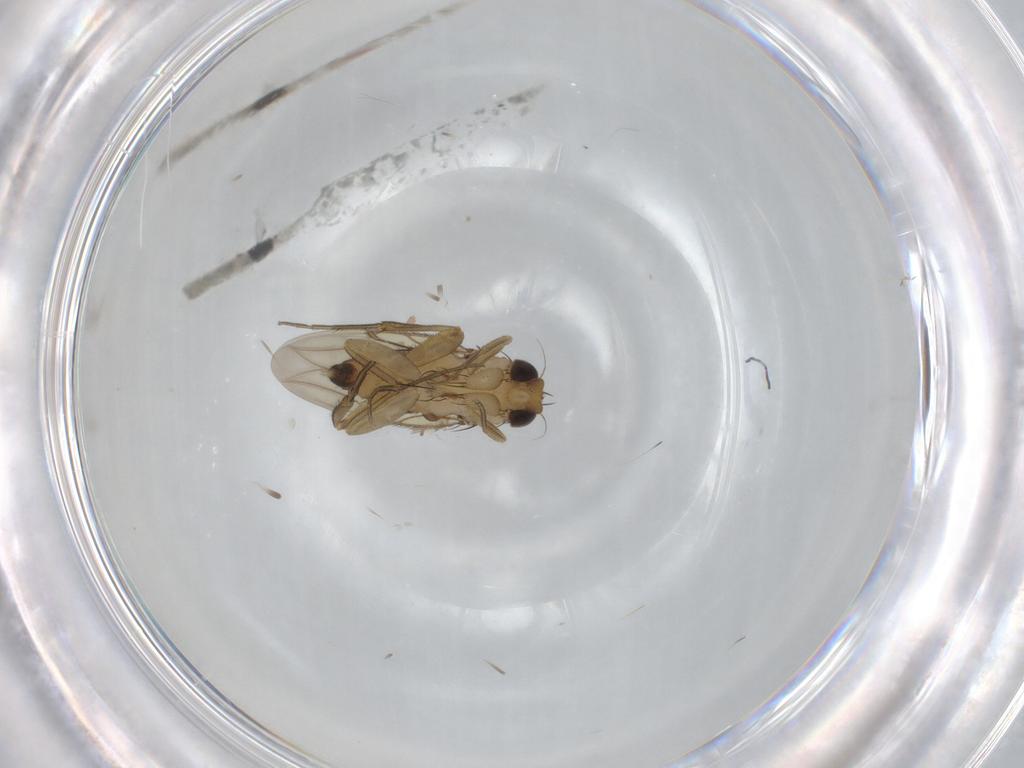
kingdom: Animalia
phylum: Arthropoda
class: Insecta
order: Diptera
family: Phoridae
